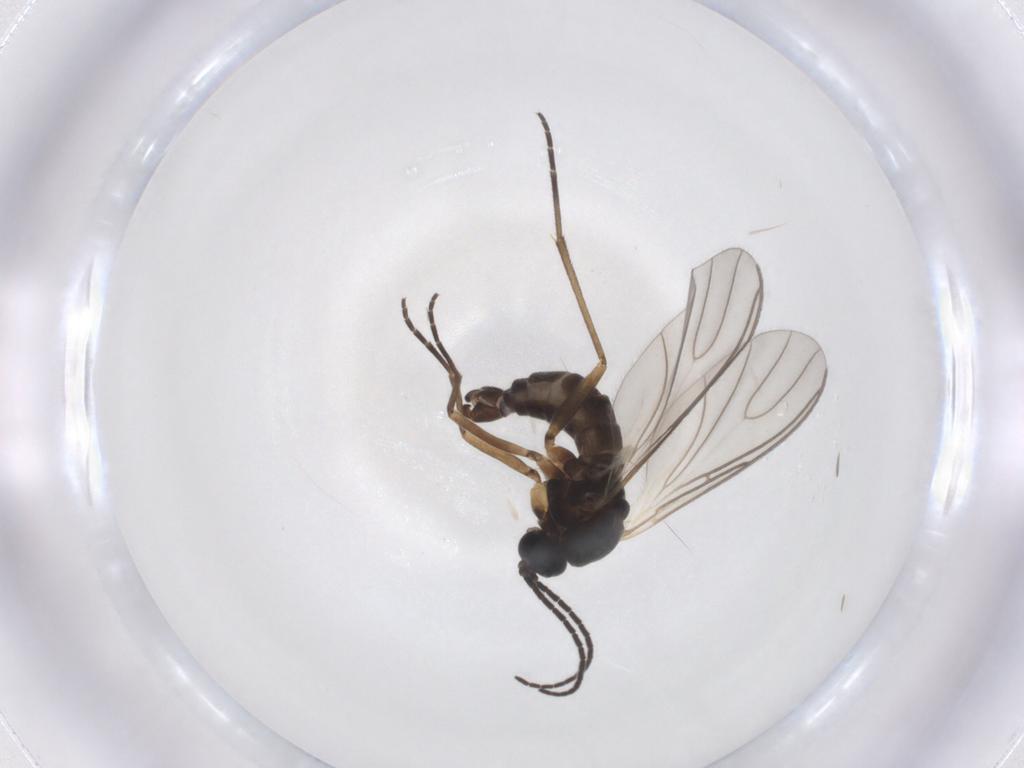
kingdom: Animalia
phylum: Arthropoda
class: Insecta
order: Diptera
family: Sciaridae
